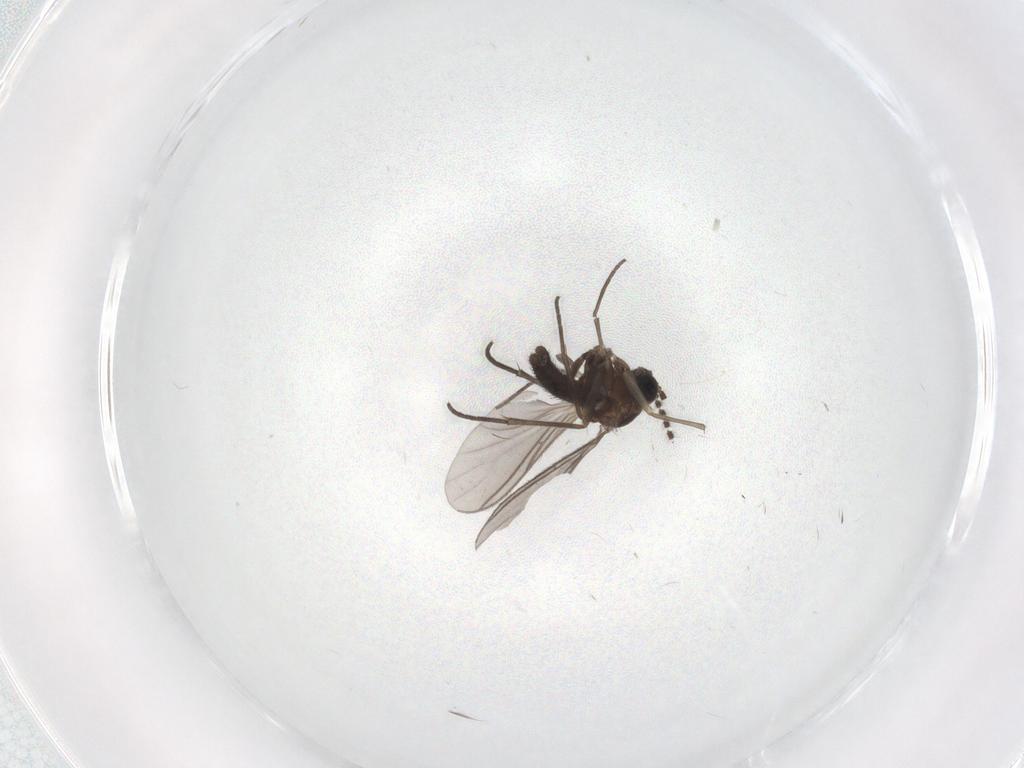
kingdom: Animalia
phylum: Arthropoda
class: Insecta
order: Diptera
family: Sciaridae
